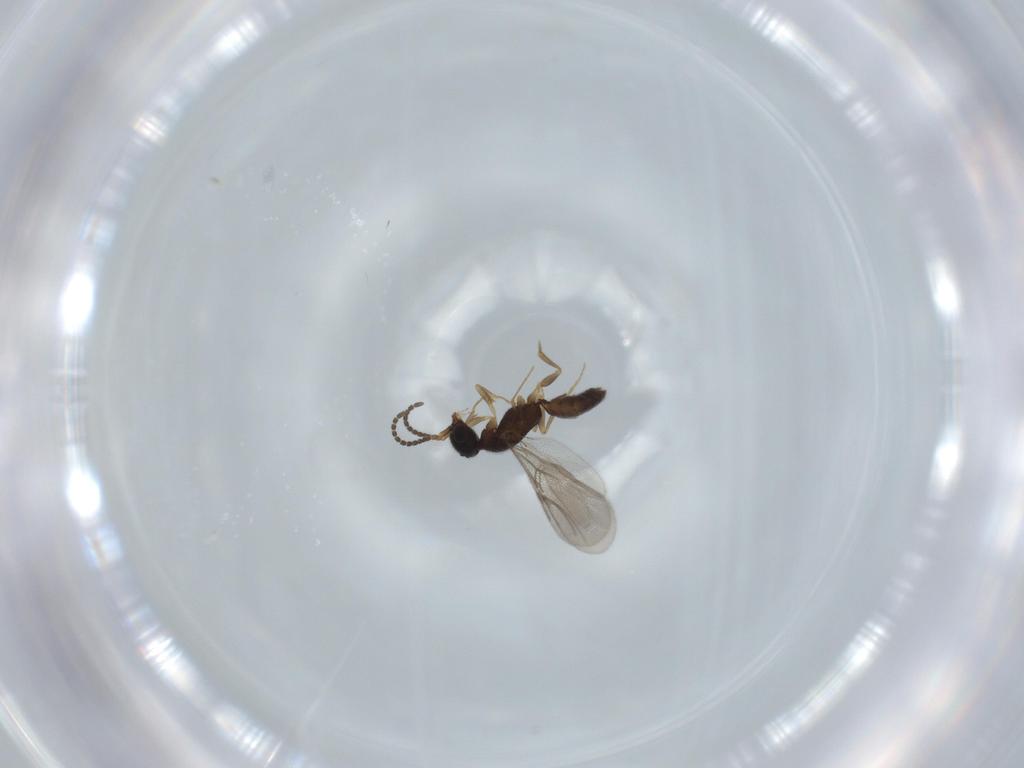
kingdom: Animalia
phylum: Arthropoda
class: Insecta
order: Hymenoptera
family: Bethylidae
